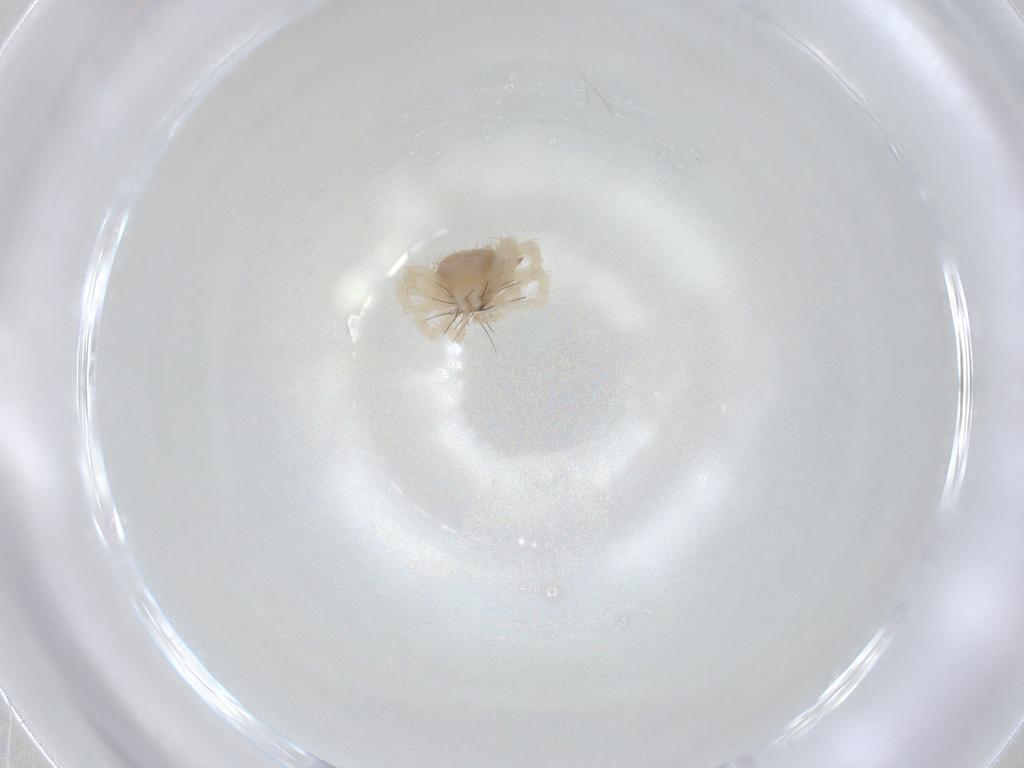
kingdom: Animalia
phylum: Arthropoda
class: Arachnida
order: Trombidiformes
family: Anystidae
